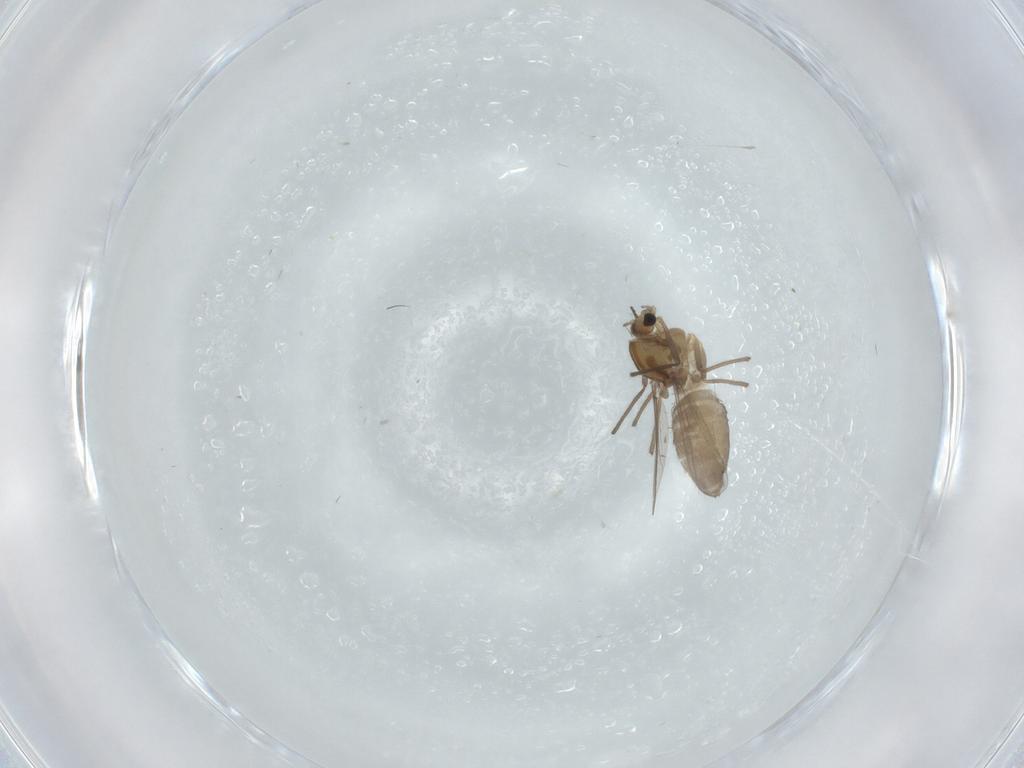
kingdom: Animalia
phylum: Arthropoda
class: Insecta
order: Diptera
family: Chironomidae
